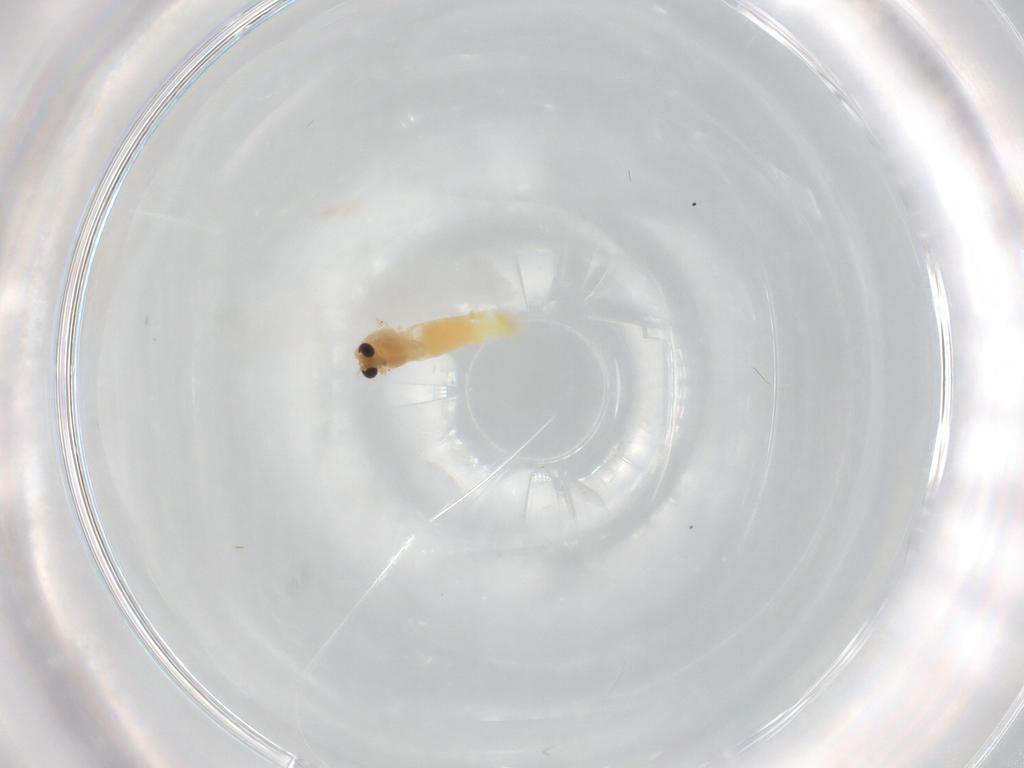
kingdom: Animalia
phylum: Arthropoda
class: Insecta
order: Diptera
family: Chironomidae
